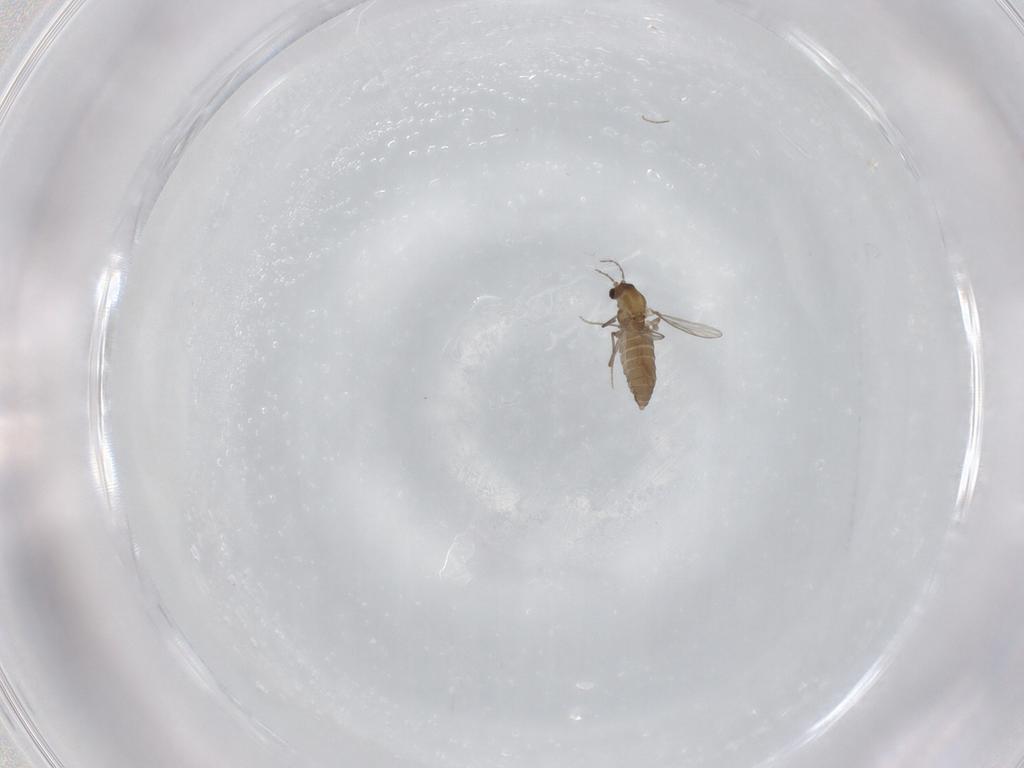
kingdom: Animalia
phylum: Arthropoda
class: Insecta
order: Diptera
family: Chironomidae
